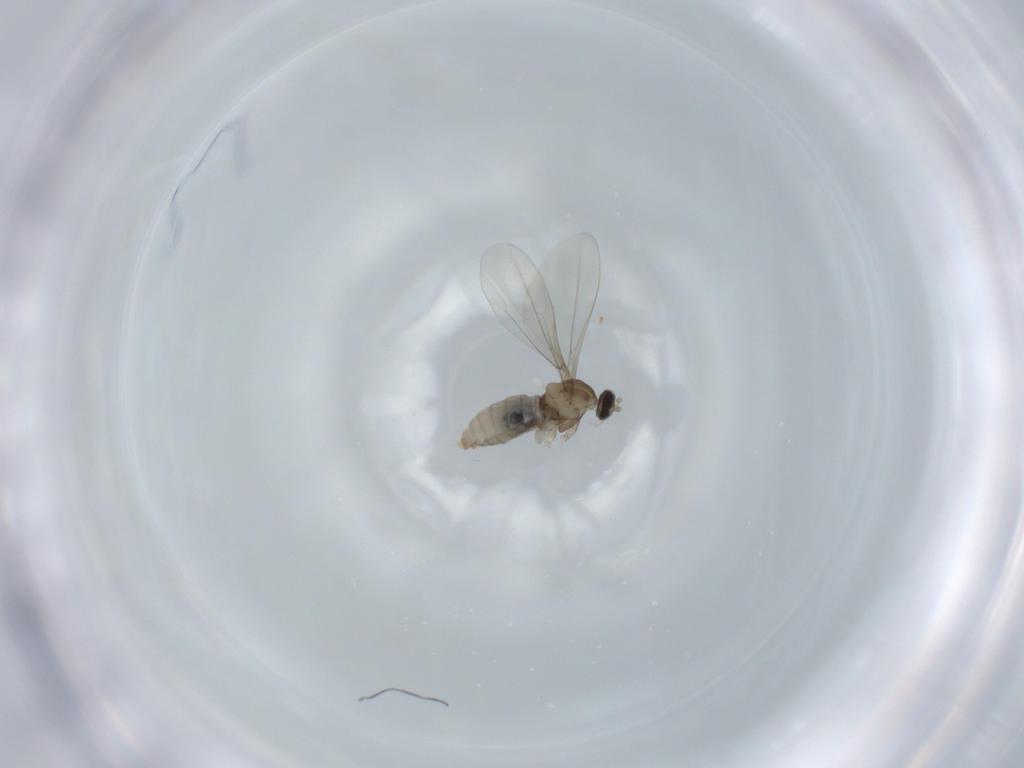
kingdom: Animalia
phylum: Arthropoda
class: Insecta
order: Diptera
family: Cecidomyiidae
